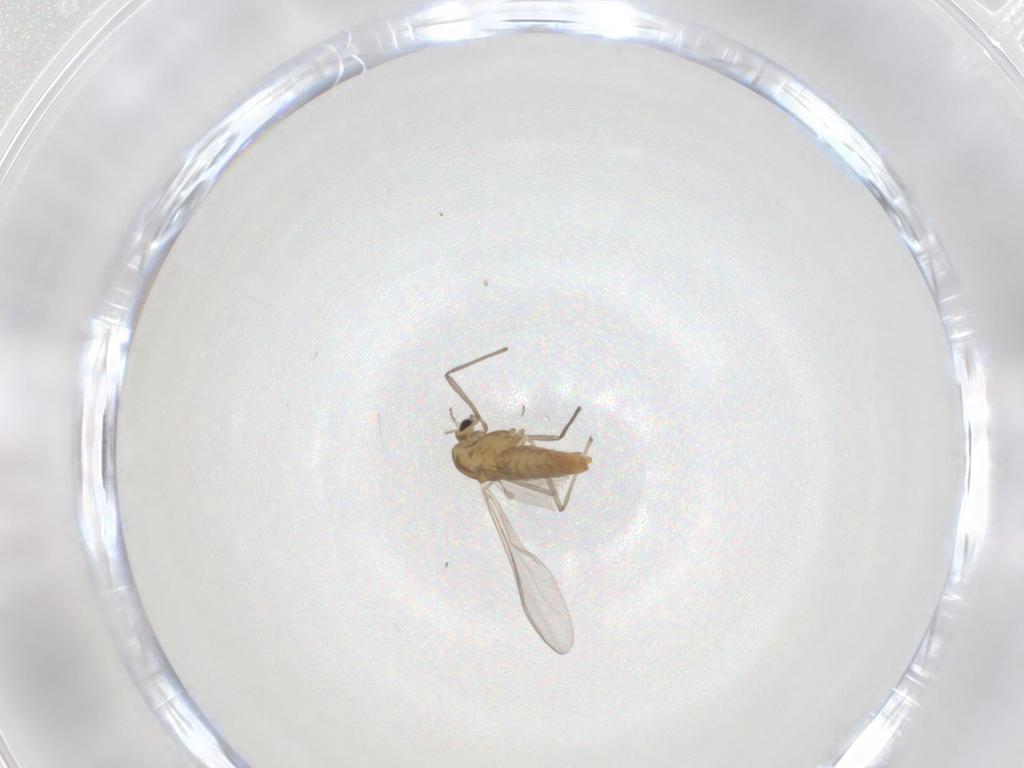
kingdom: Animalia
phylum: Arthropoda
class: Insecta
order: Diptera
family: Chironomidae
